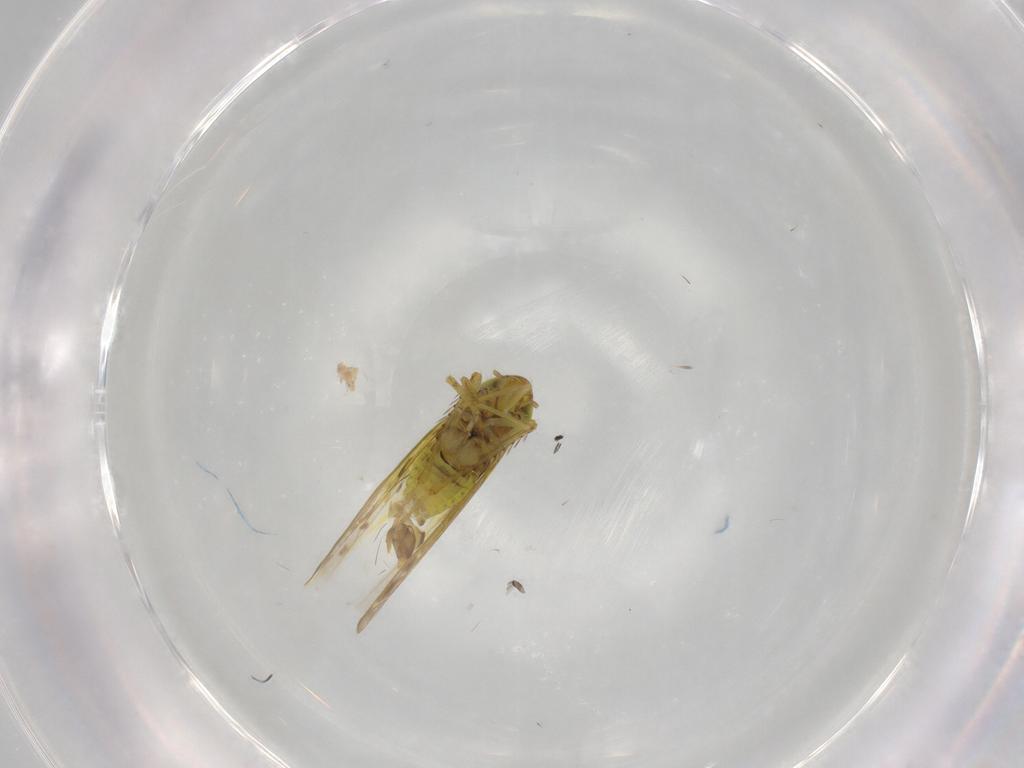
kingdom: Animalia
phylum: Arthropoda
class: Insecta
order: Hemiptera
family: Cicadellidae
